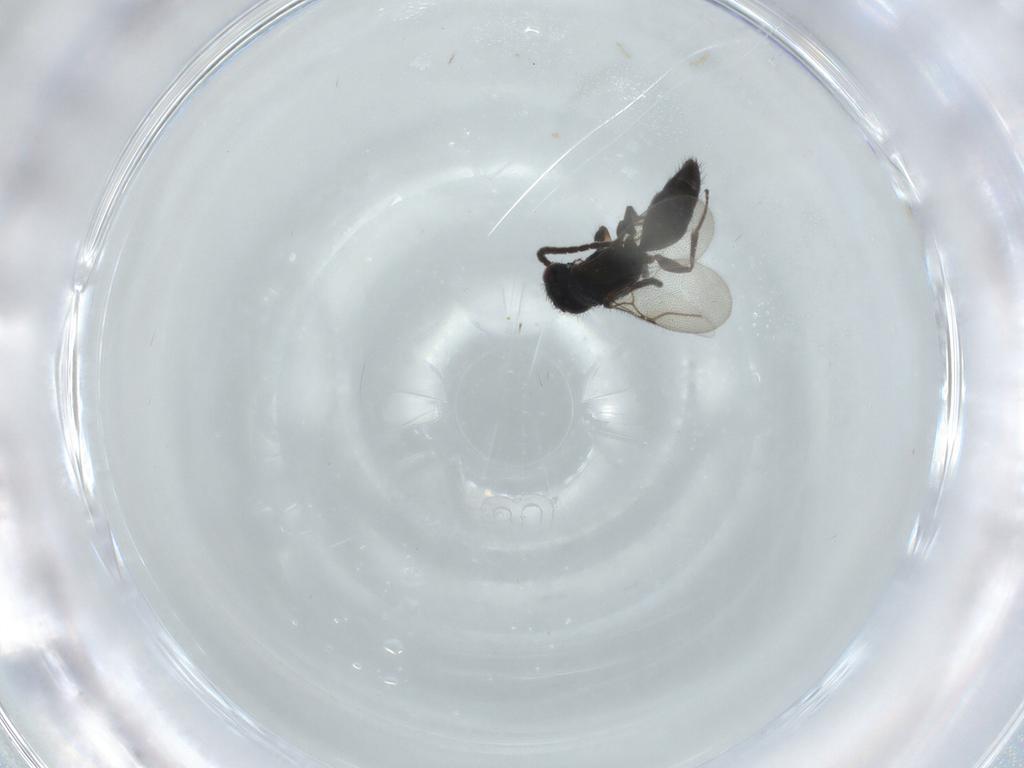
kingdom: Animalia
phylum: Arthropoda
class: Insecta
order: Hymenoptera
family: Bethylidae
